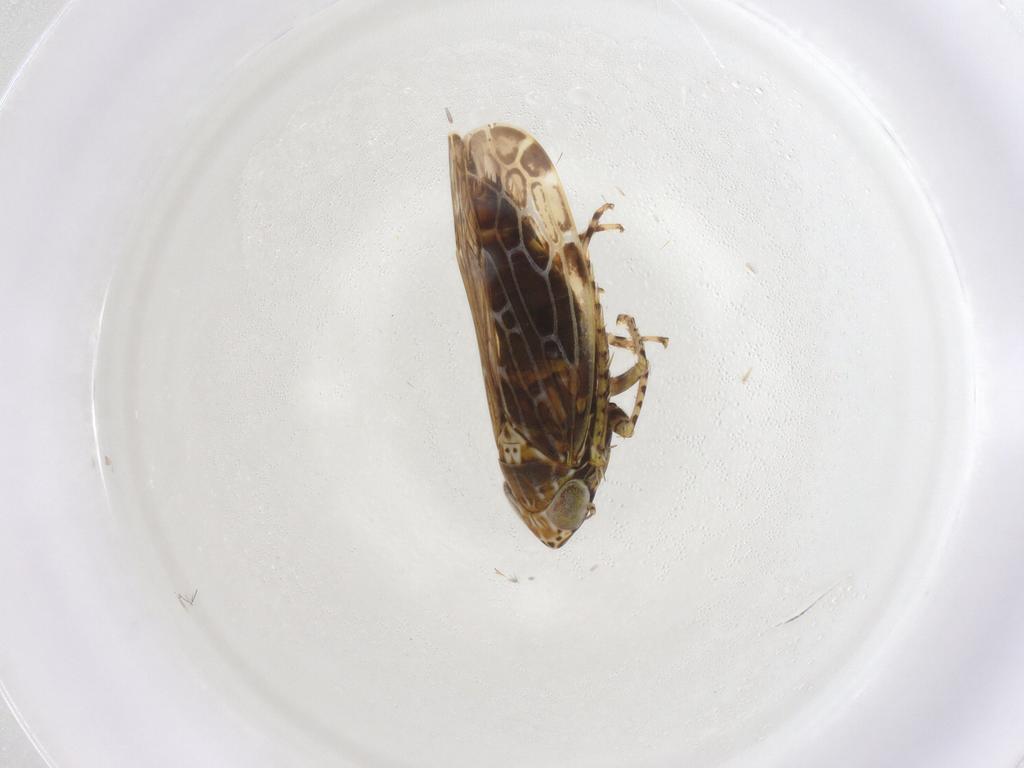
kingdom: Animalia
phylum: Arthropoda
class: Insecta
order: Hemiptera
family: Cicadellidae
